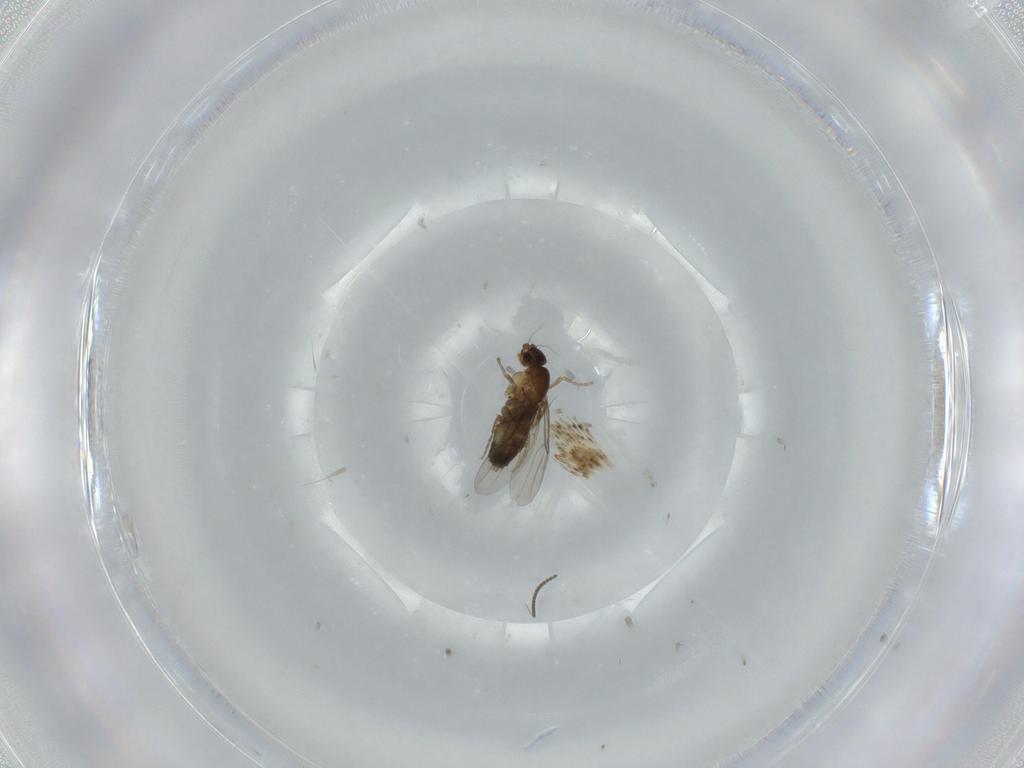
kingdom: Animalia
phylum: Arthropoda
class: Insecta
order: Diptera
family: Phoridae
